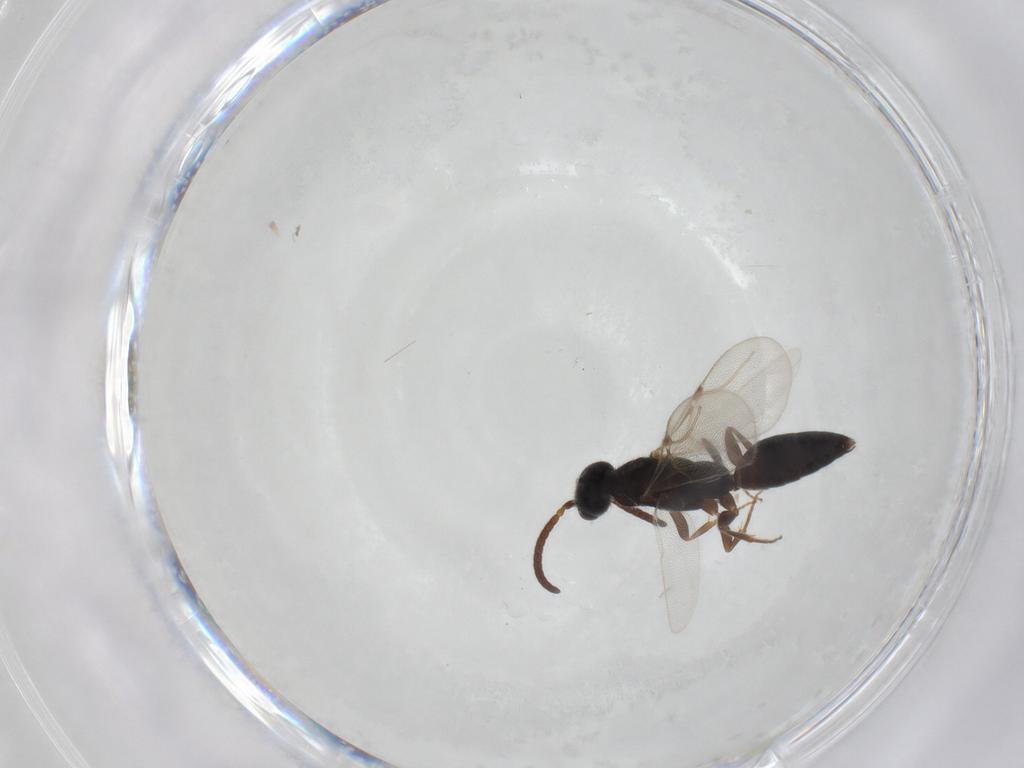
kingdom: Animalia
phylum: Arthropoda
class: Insecta
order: Hymenoptera
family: Bethylidae
